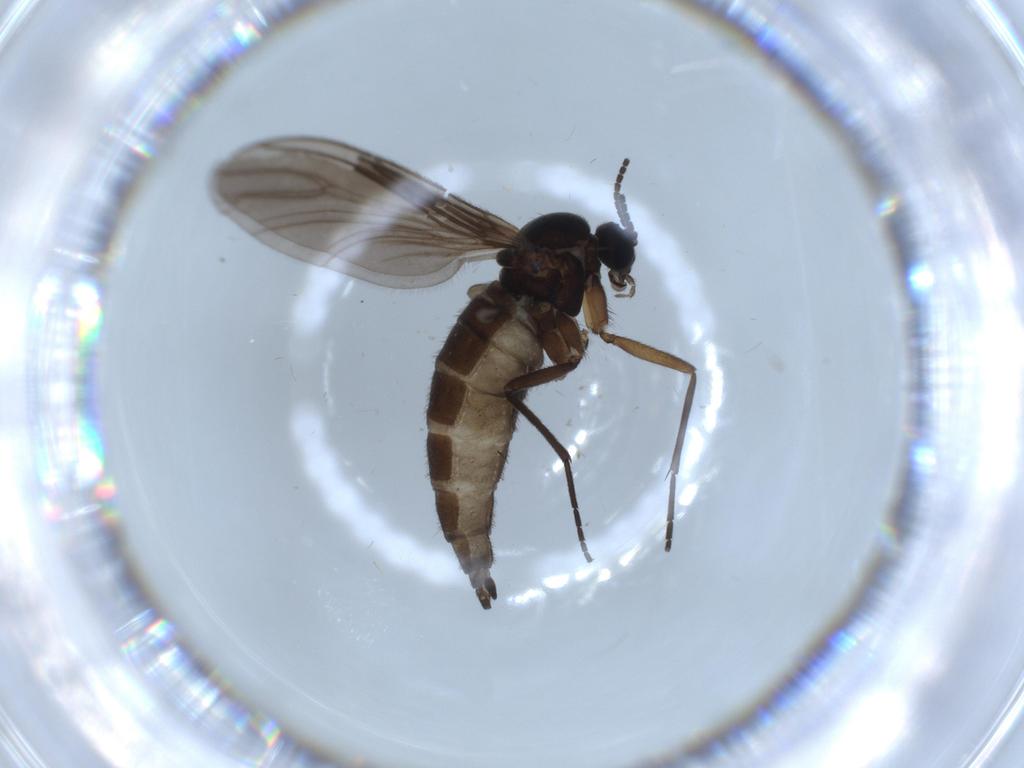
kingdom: Animalia
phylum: Arthropoda
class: Insecta
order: Diptera
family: Sciaridae
